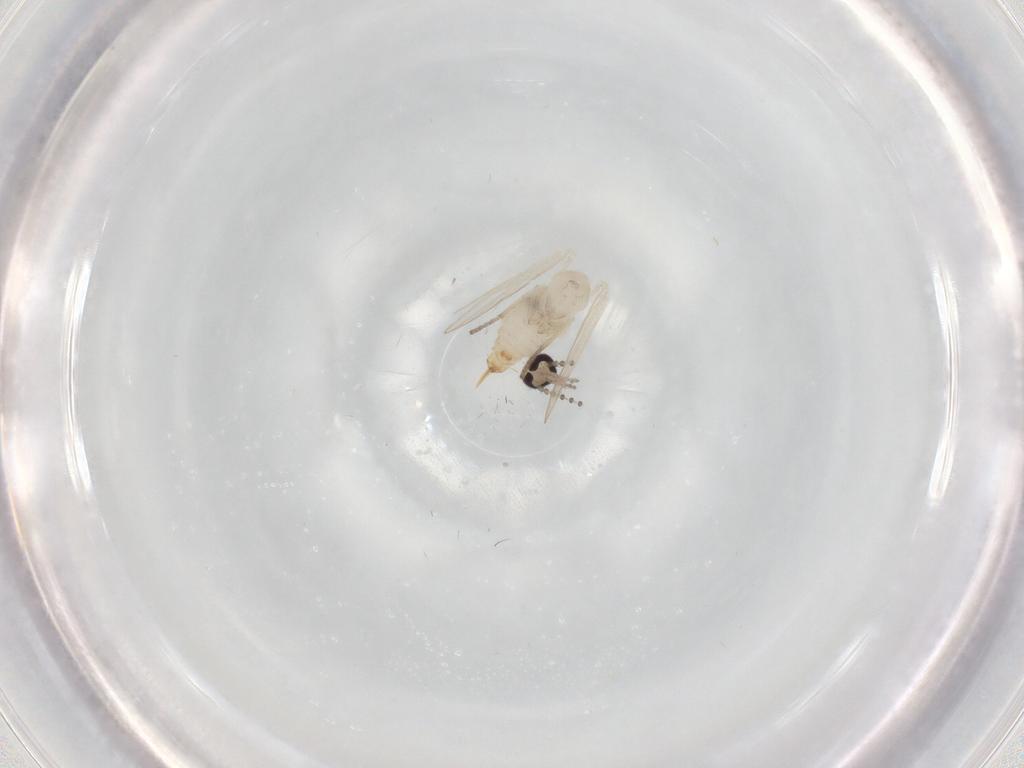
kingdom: Animalia
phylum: Arthropoda
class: Insecta
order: Diptera
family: Psychodidae
